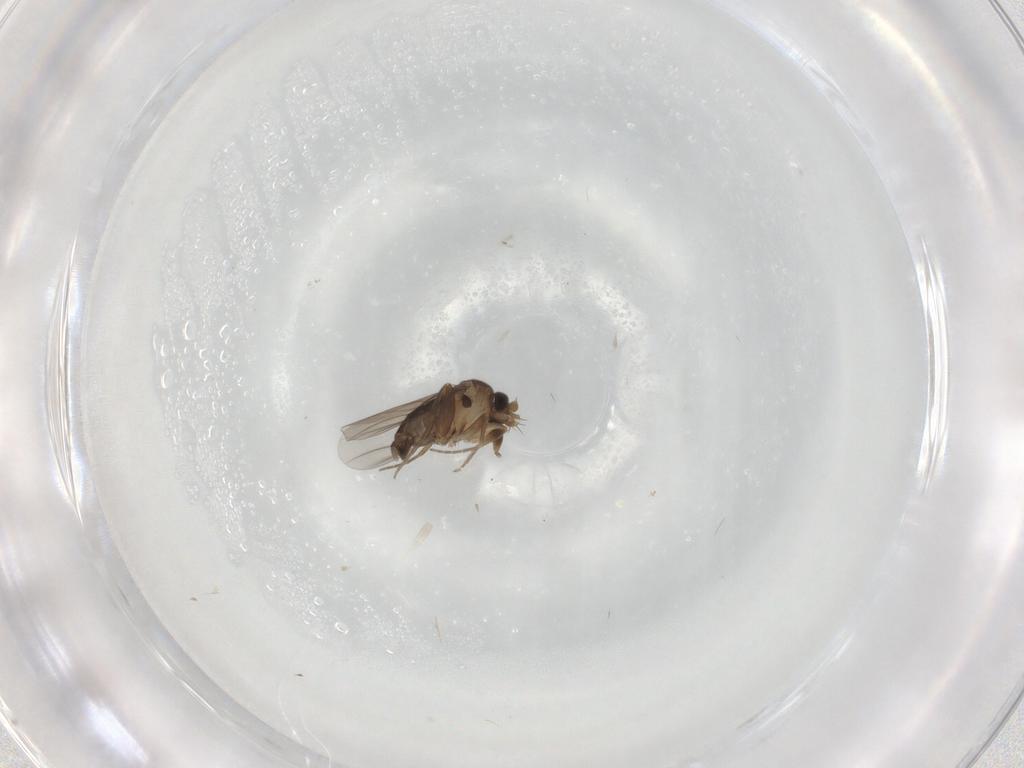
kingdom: Animalia
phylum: Arthropoda
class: Insecta
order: Diptera
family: Phoridae
